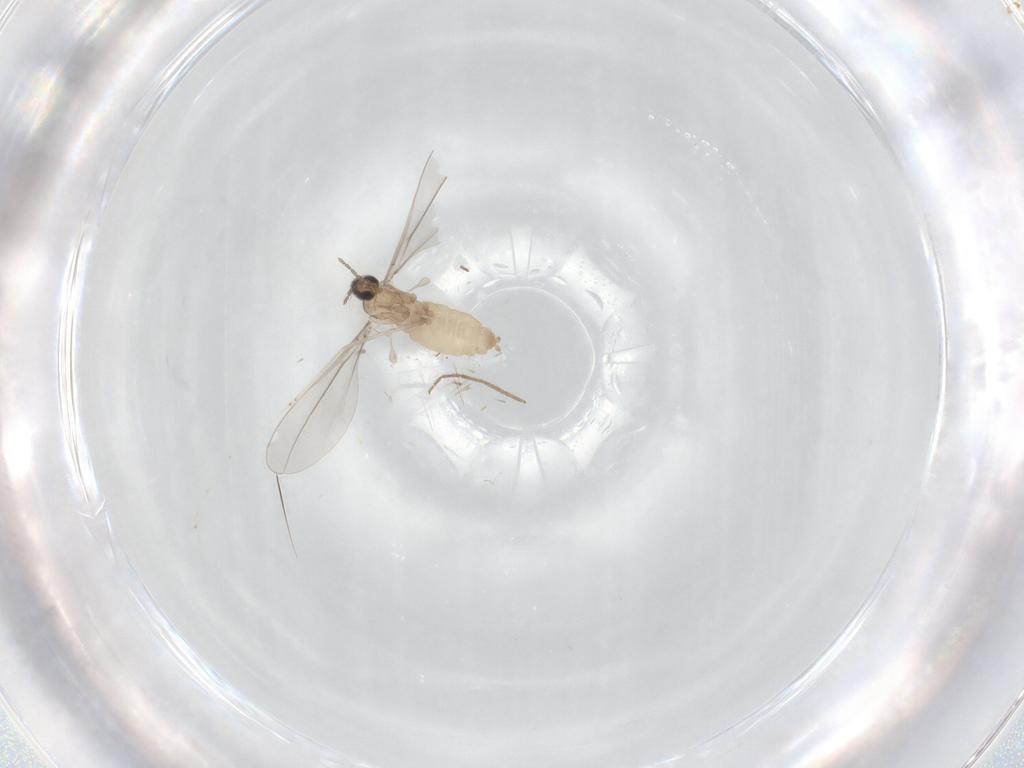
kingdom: Animalia
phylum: Arthropoda
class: Insecta
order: Diptera
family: Cecidomyiidae
